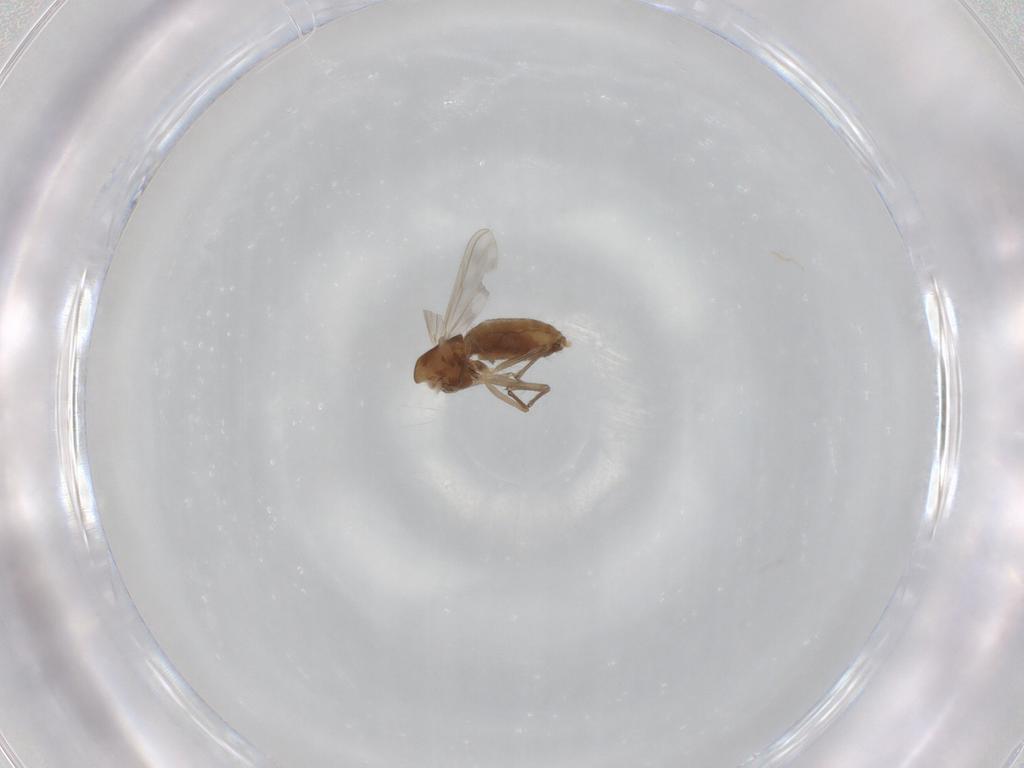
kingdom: Animalia
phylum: Arthropoda
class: Insecta
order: Diptera
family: Chironomidae
